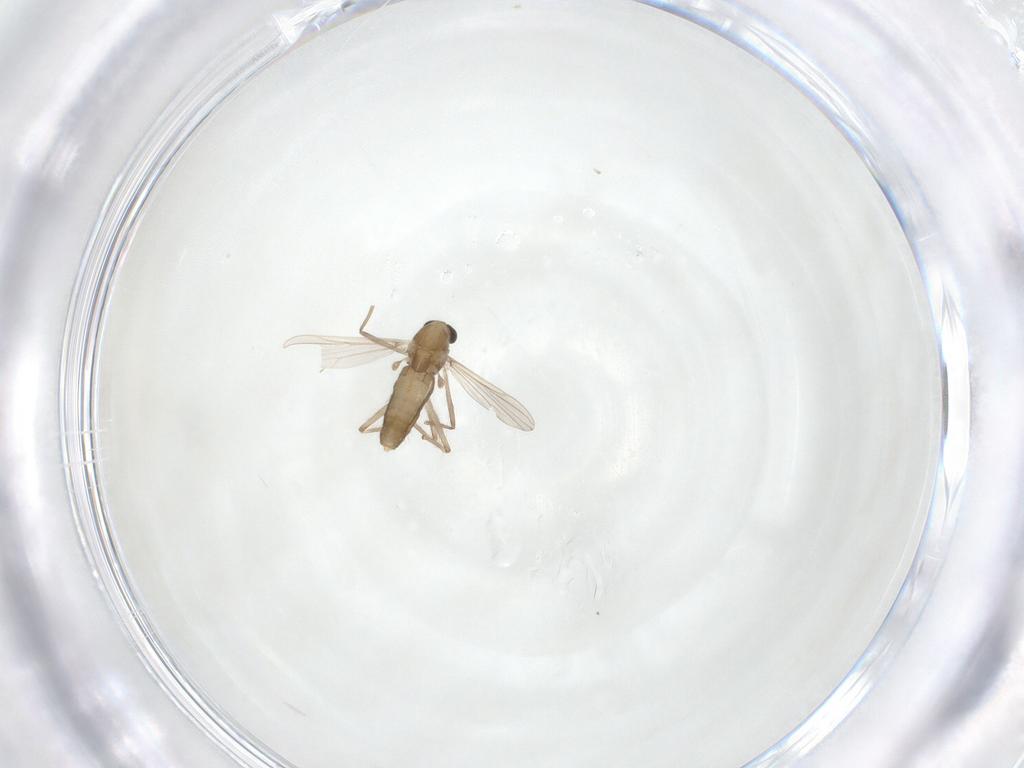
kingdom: Animalia
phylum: Arthropoda
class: Insecta
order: Diptera
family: Chironomidae
